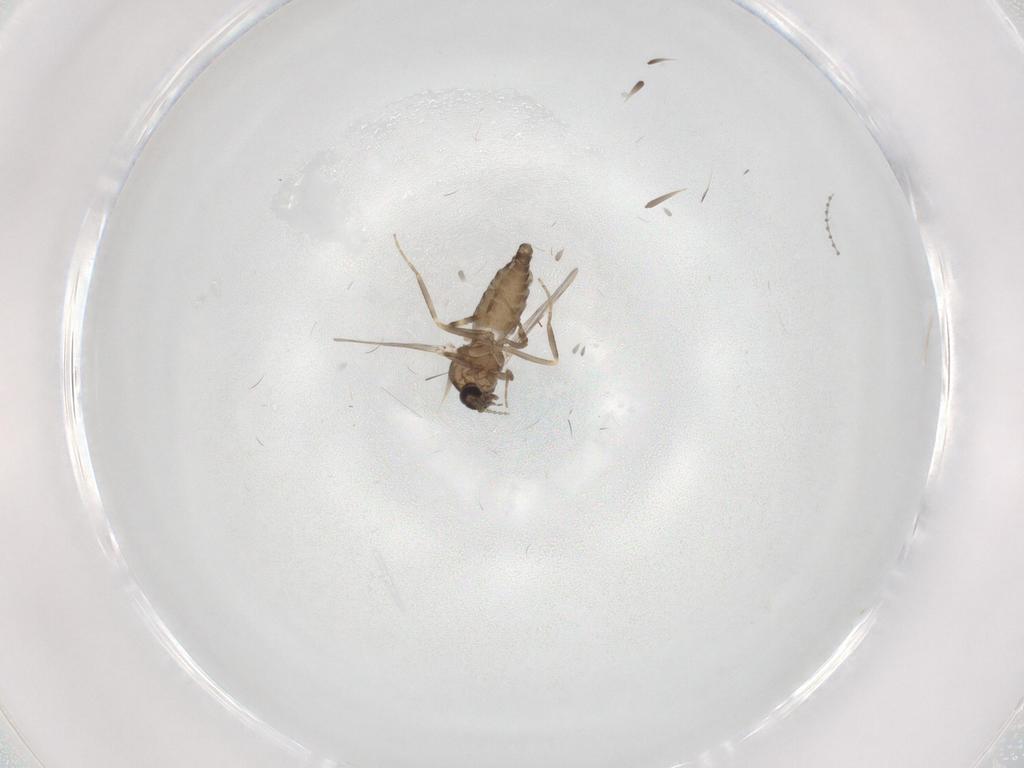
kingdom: Animalia
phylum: Arthropoda
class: Insecta
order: Diptera
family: Ceratopogonidae
